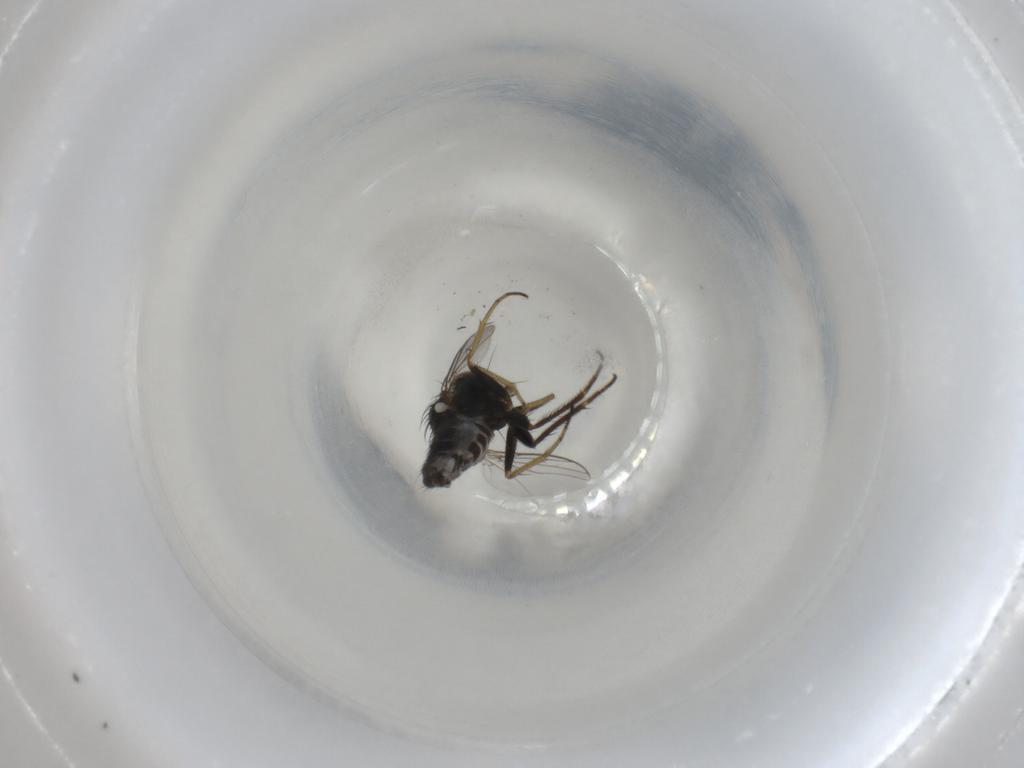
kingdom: Animalia
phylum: Arthropoda
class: Insecta
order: Diptera
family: Dolichopodidae
